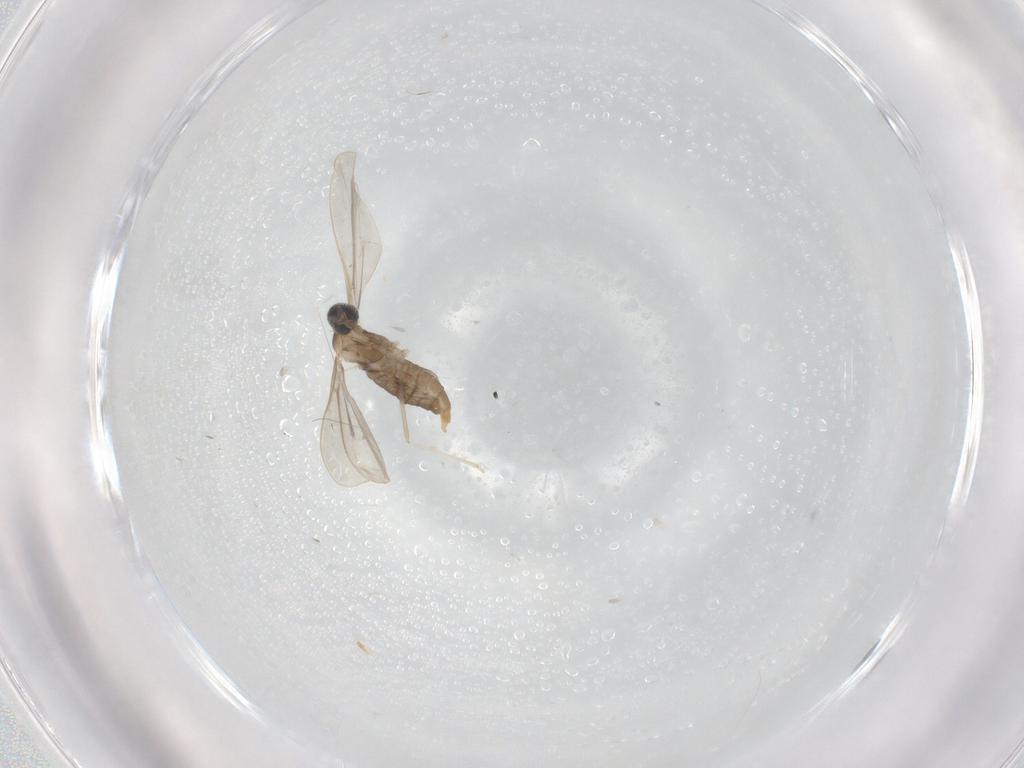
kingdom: Animalia
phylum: Arthropoda
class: Insecta
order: Diptera
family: Cecidomyiidae
